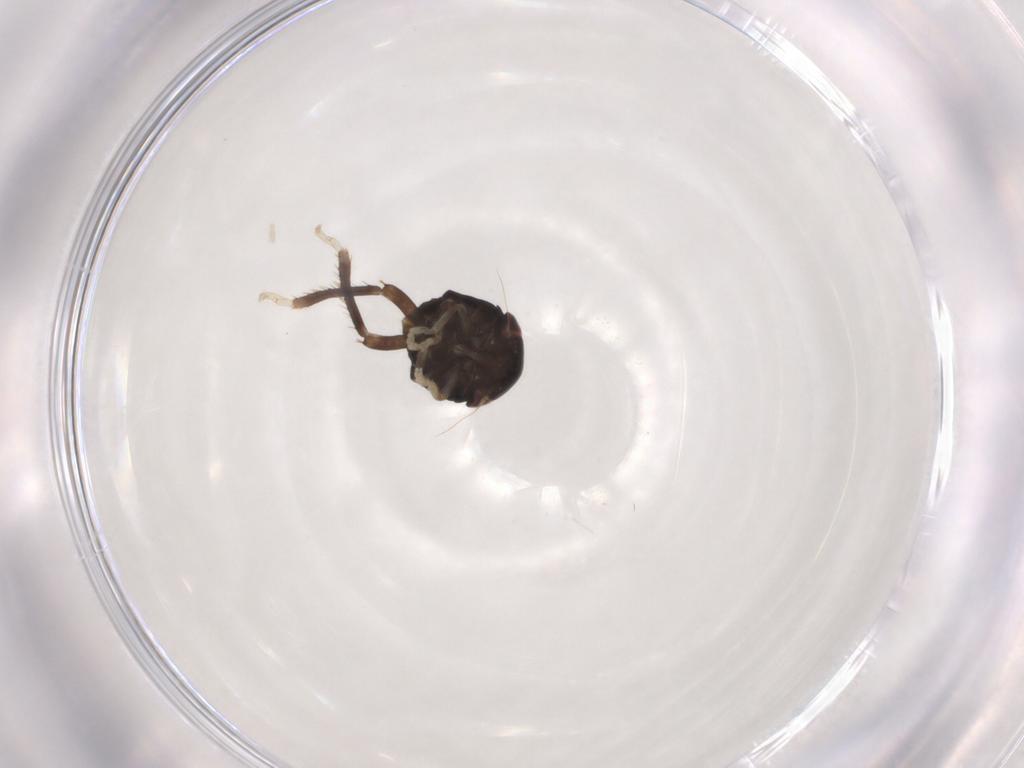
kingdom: Animalia
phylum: Arthropoda
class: Insecta
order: Hemiptera
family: Cicadellidae
